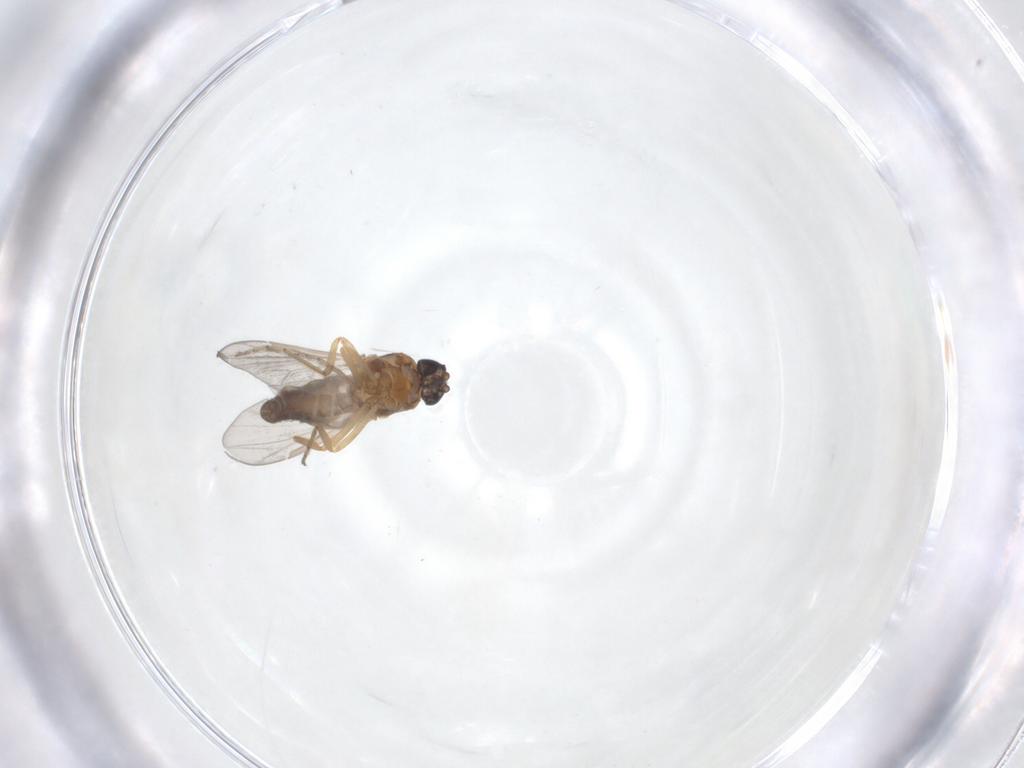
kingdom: Animalia
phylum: Arthropoda
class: Insecta
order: Diptera
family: Ceratopogonidae
